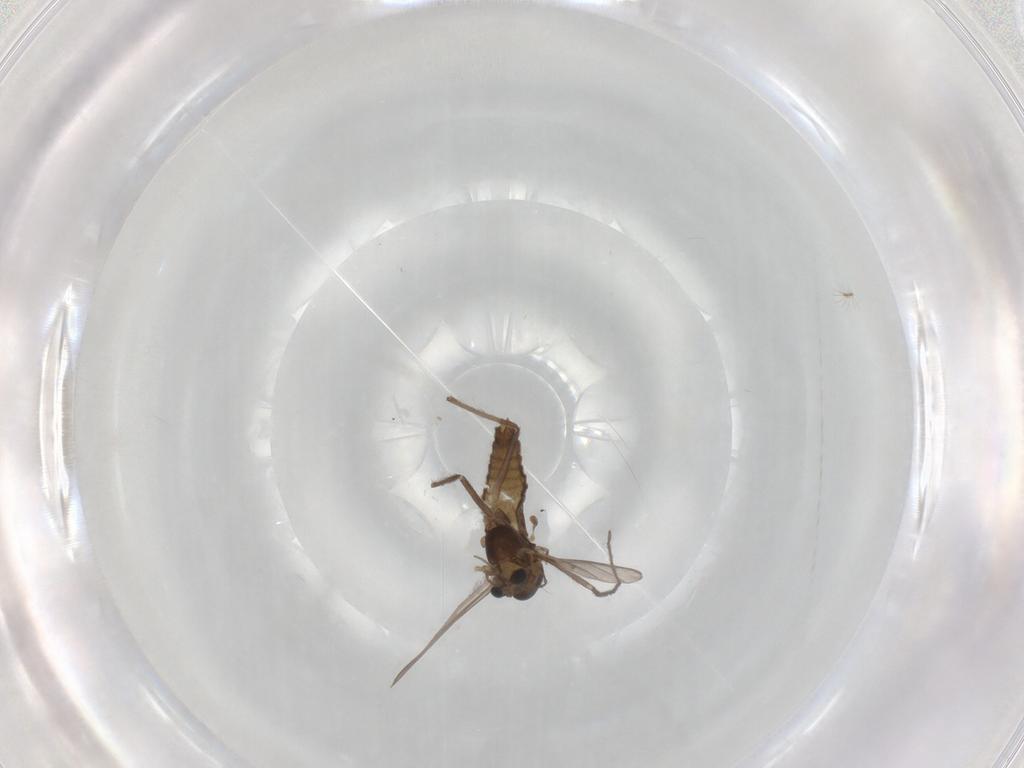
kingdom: Animalia
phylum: Arthropoda
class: Insecta
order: Diptera
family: Chironomidae
